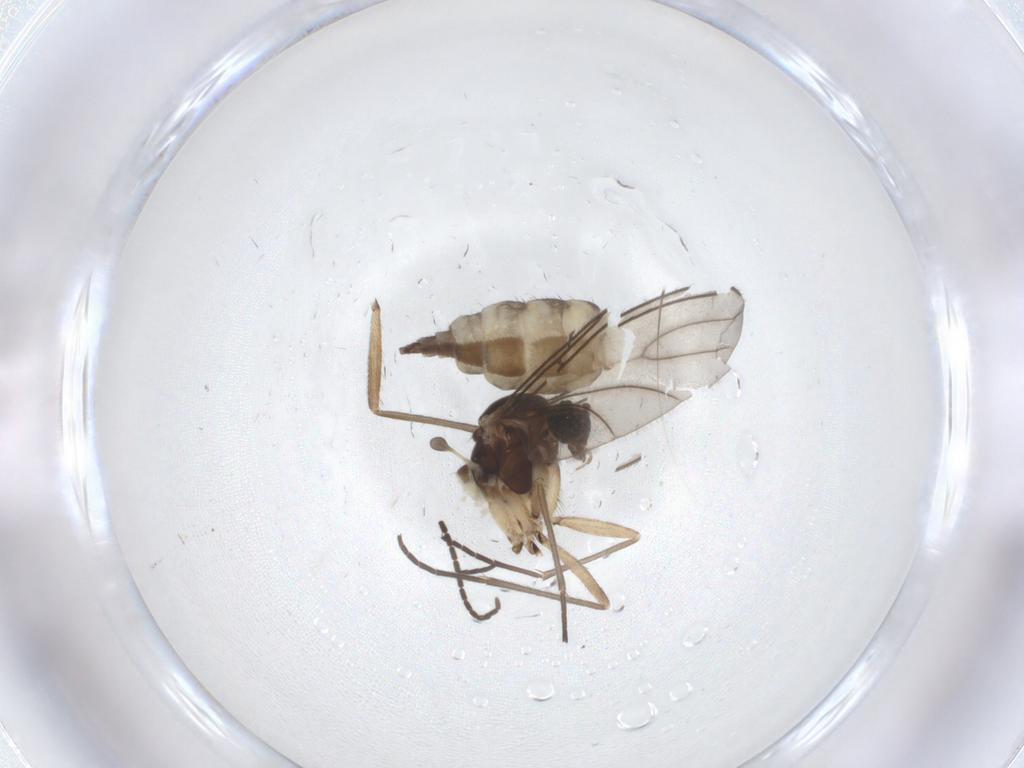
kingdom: Animalia
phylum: Arthropoda
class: Insecta
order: Diptera
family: Sciaridae
